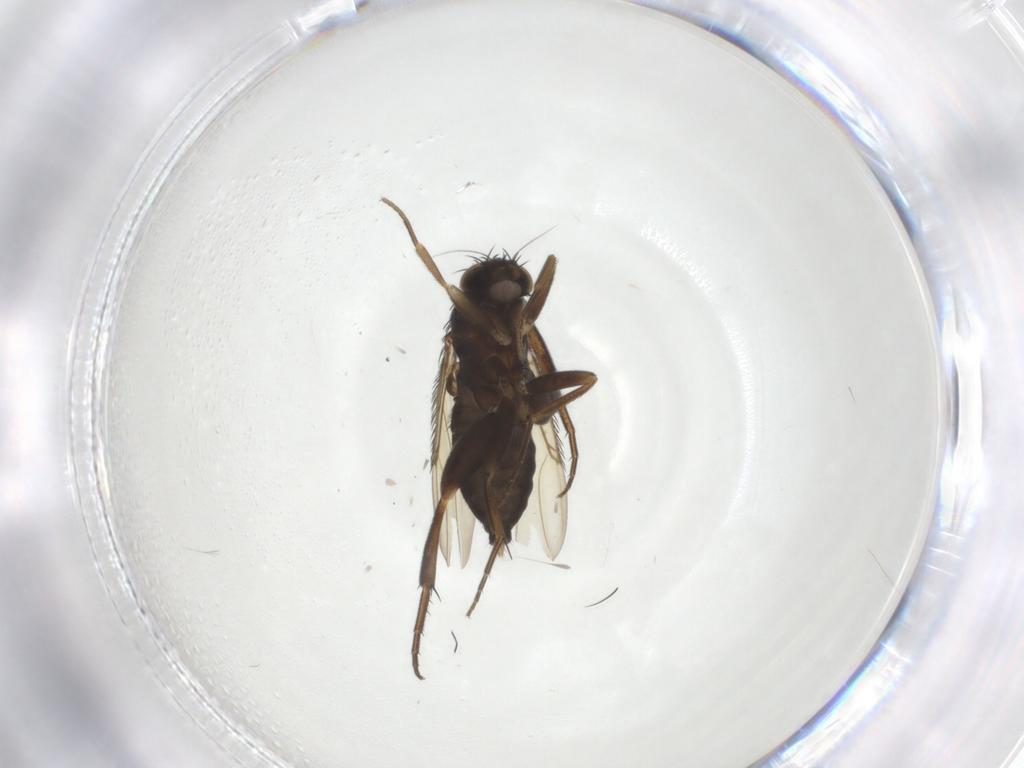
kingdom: Animalia
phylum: Arthropoda
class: Insecta
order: Diptera
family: Phoridae
